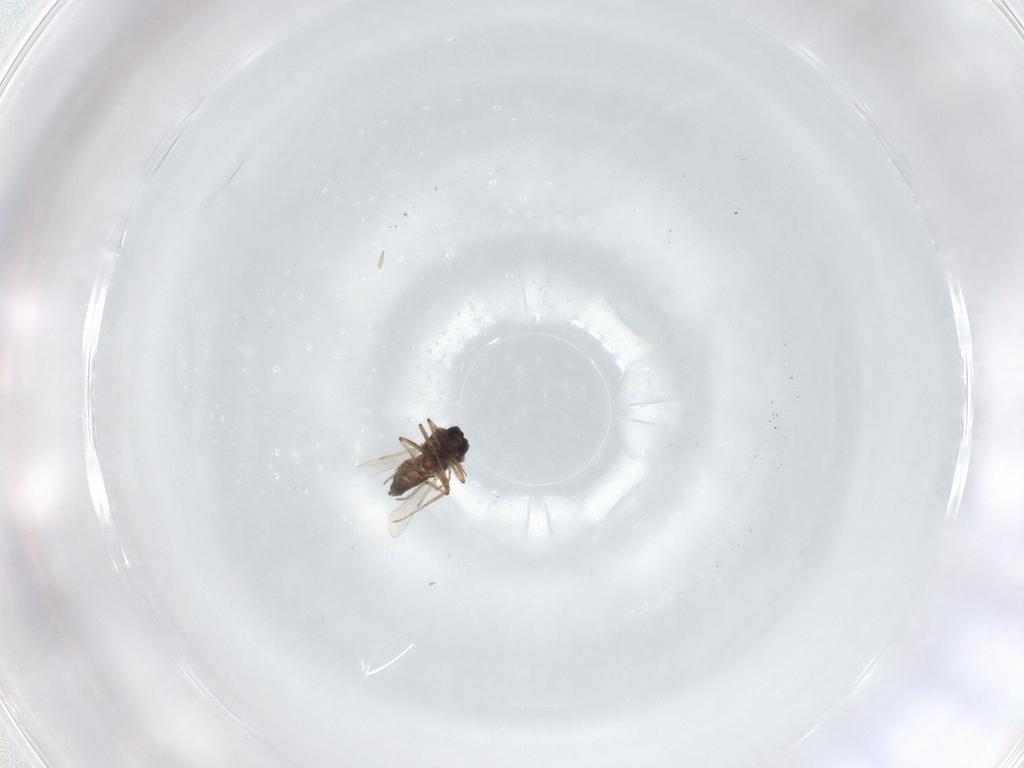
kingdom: Animalia
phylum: Arthropoda
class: Insecta
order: Diptera
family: Ceratopogonidae
